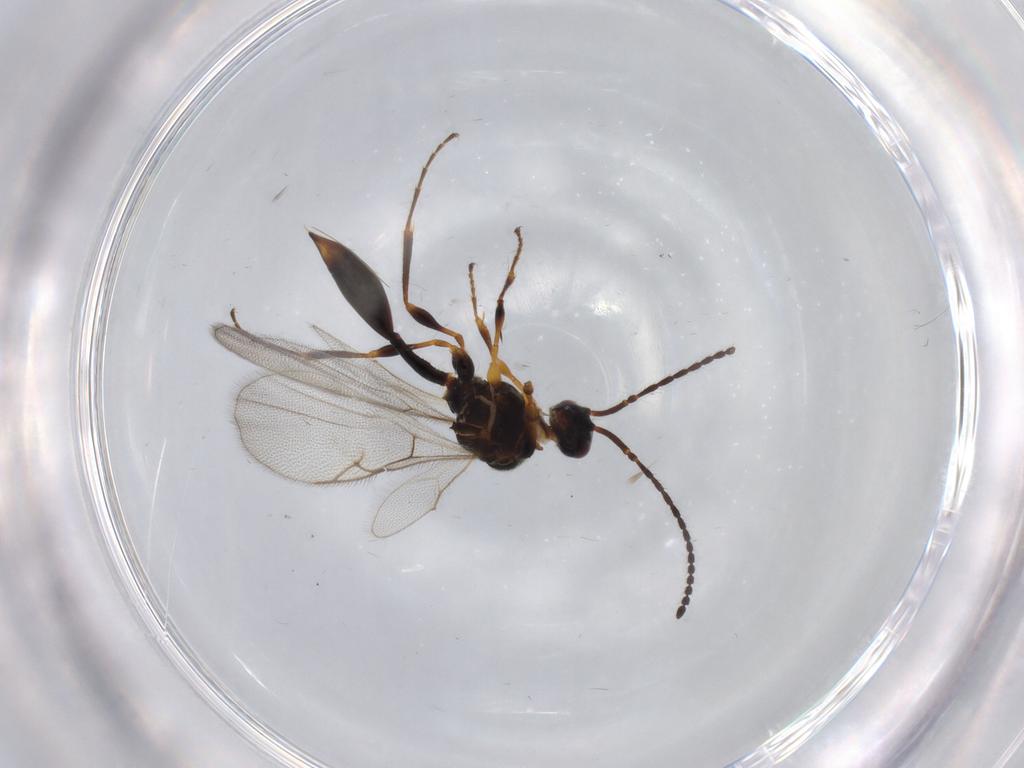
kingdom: Animalia
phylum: Arthropoda
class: Insecta
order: Hymenoptera
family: Diapriidae
